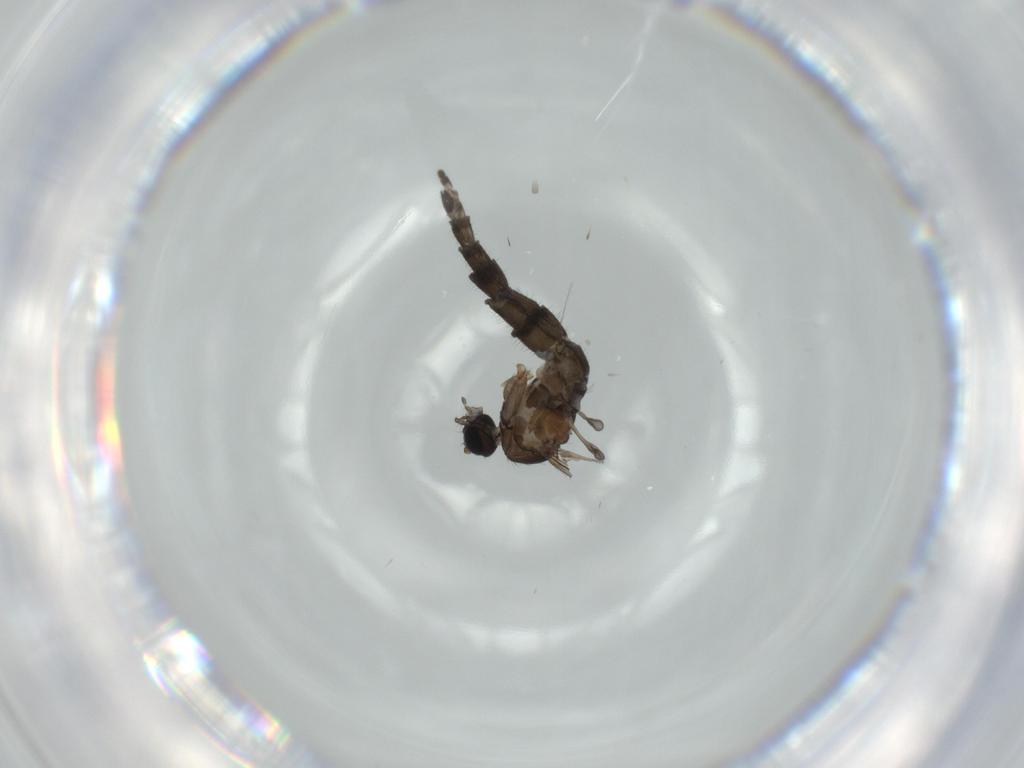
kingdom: Animalia
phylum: Arthropoda
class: Insecta
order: Diptera
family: Sciaridae
